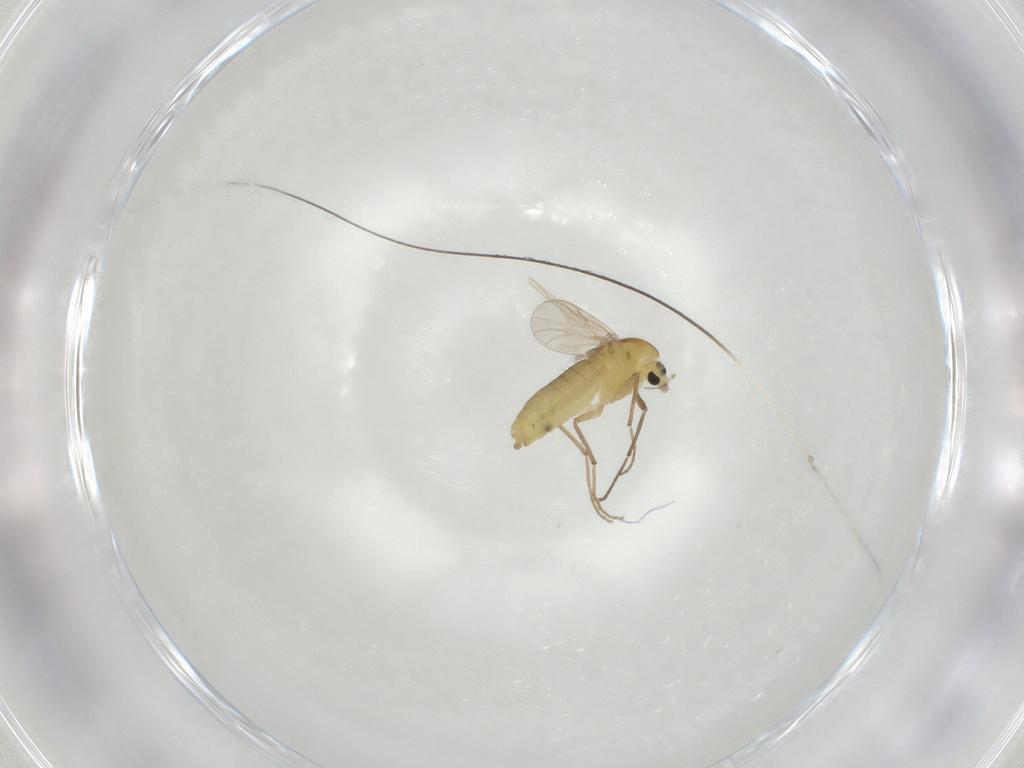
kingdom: Animalia
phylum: Arthropoda
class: Insecta
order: Diptera
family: Chironomidae
